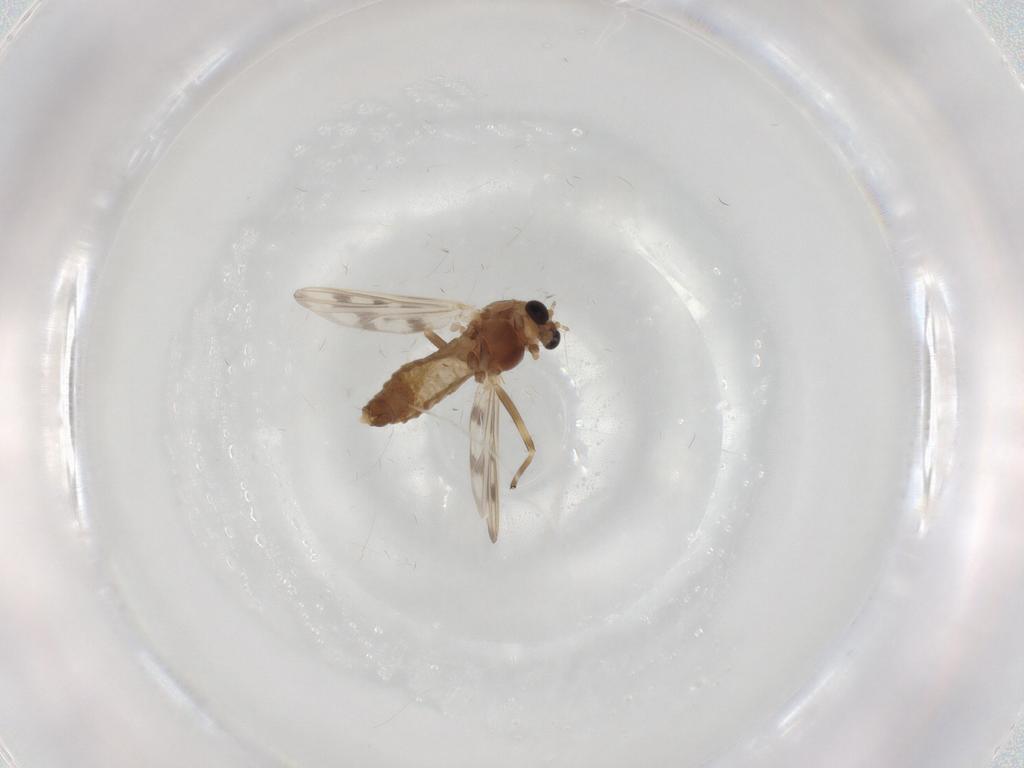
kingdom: Animalia
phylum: Arthropoda
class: Insecta
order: Diptera
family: Chironomidae
